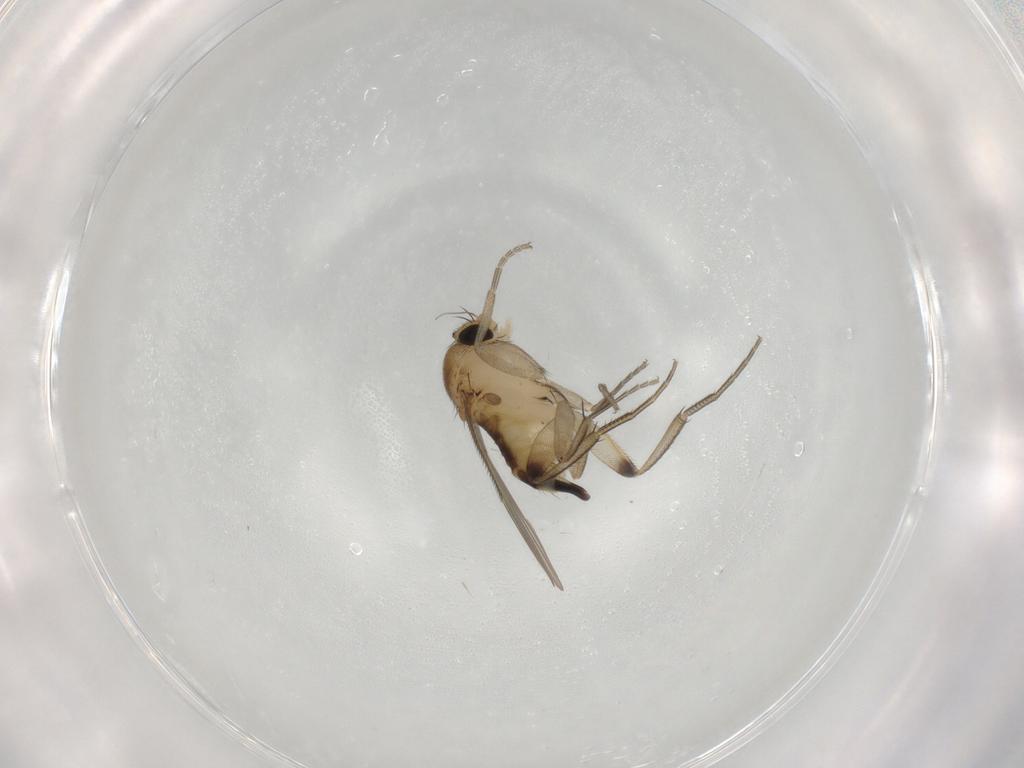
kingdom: Animalia
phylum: Arthropoda
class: Insecta
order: Diptera
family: Phoridae
